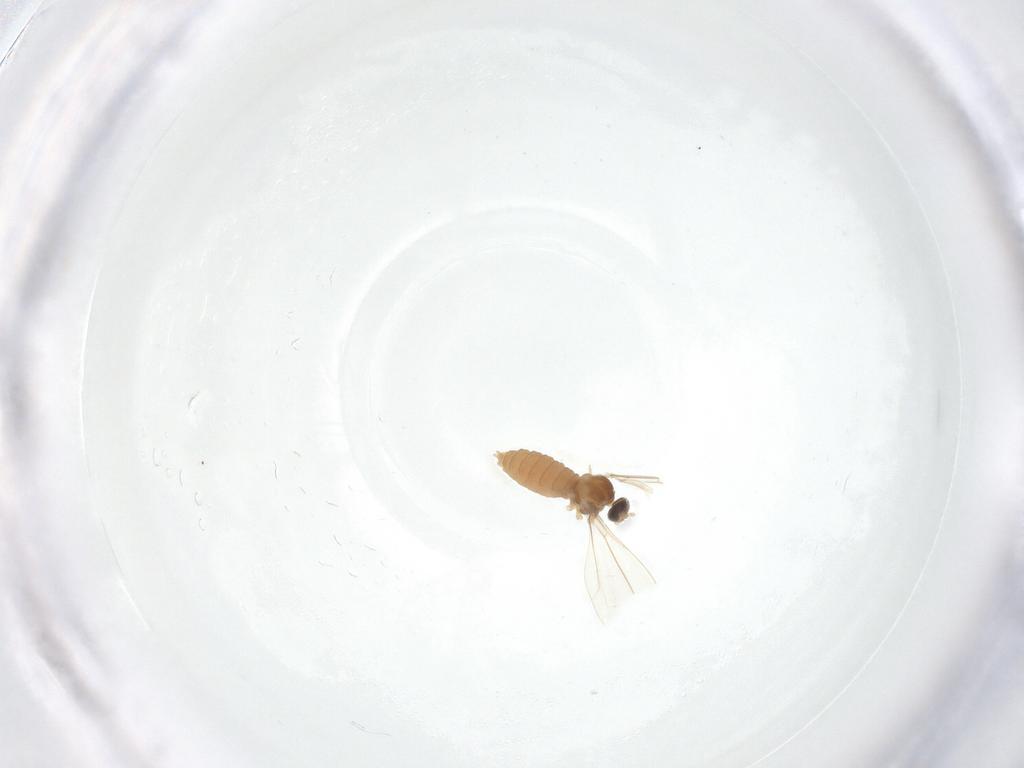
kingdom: Animalia
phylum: Arthropoda
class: Insecta
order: Diptera
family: Cecidomyiidae
